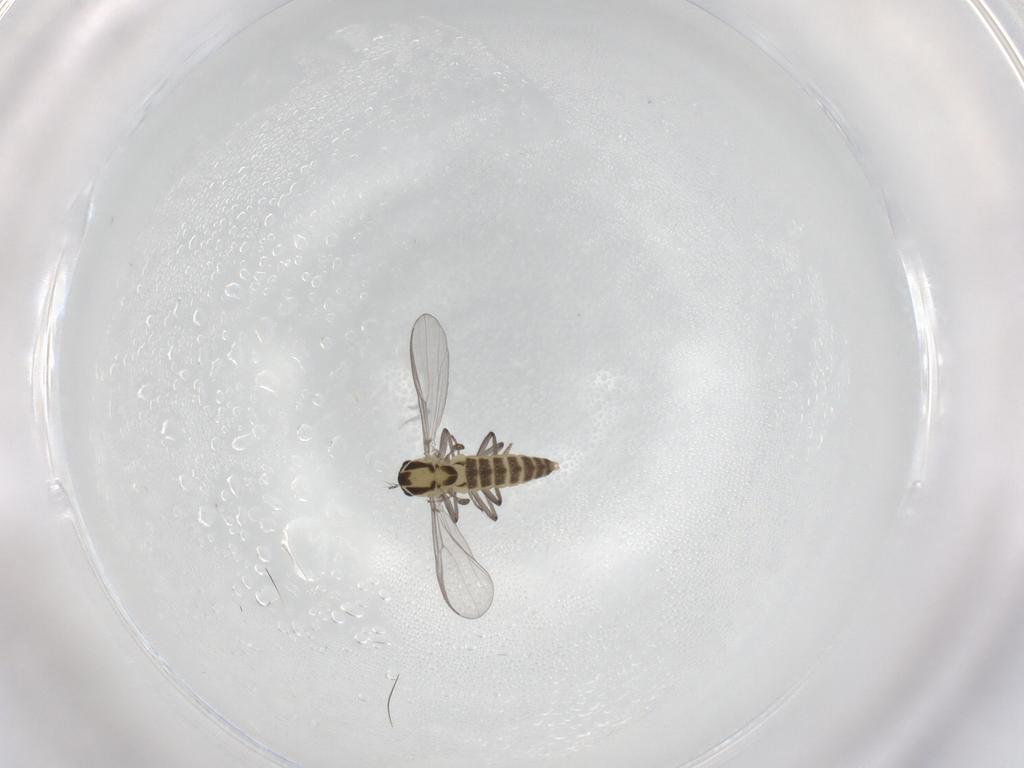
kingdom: Animalia
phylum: Arthropoda
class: Insecta
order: Diptera
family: Chironomidae
